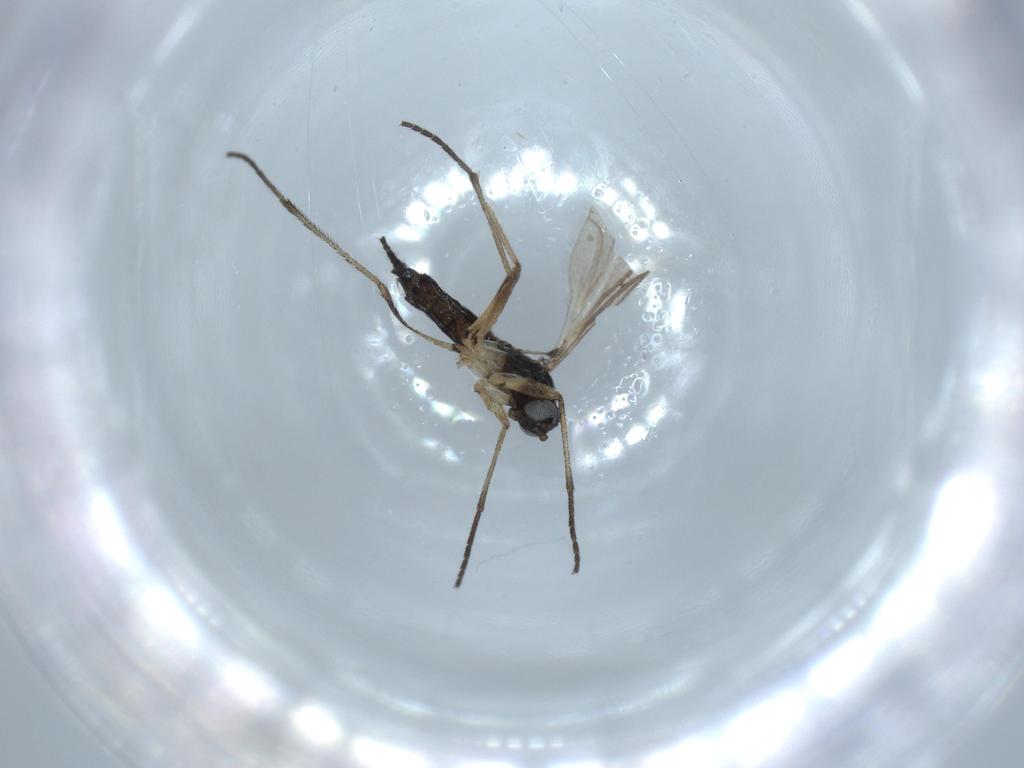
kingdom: Animalia
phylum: Arthropoda
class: Insecta
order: Diptera
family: Sciaridae
